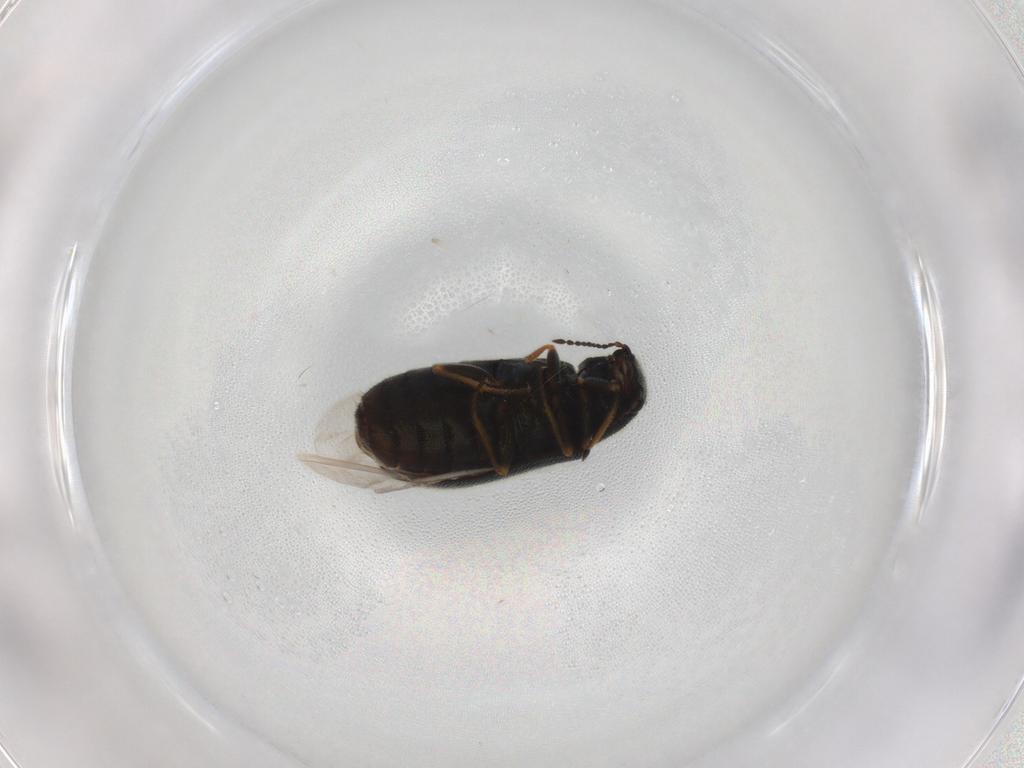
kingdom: Animalia
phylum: Arthropoda
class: Insecta
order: Coleoptera
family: Dasytidae
